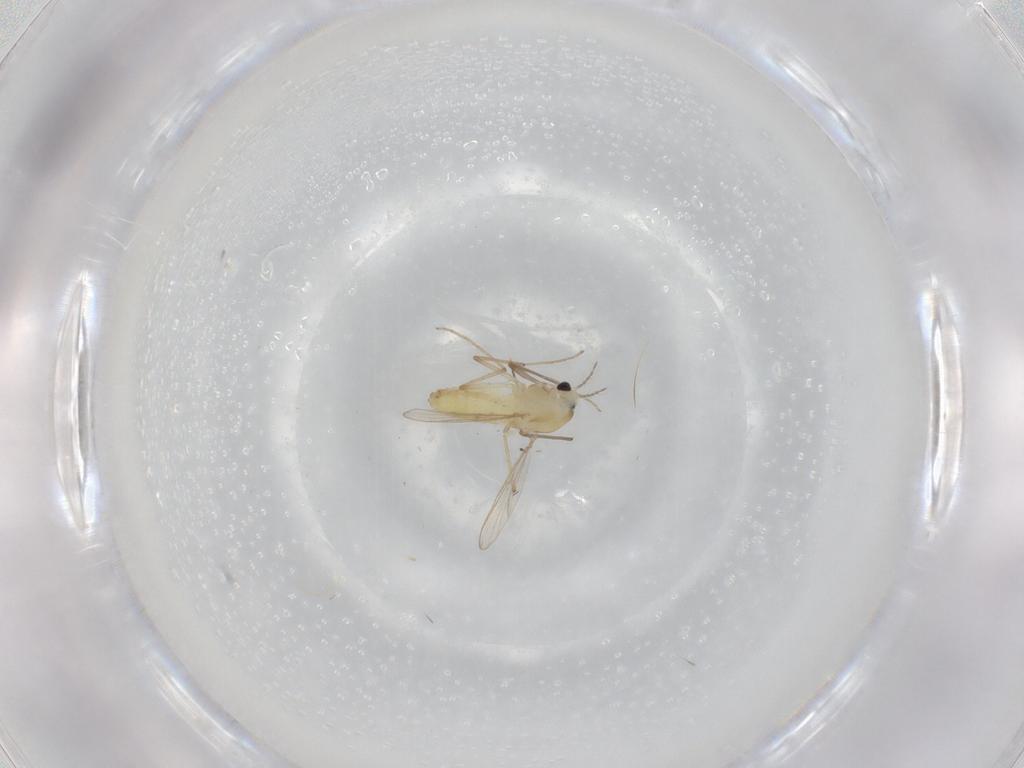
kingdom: Animalia
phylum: Arthropoda
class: Insecta
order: Diptera
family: Chironomidae
